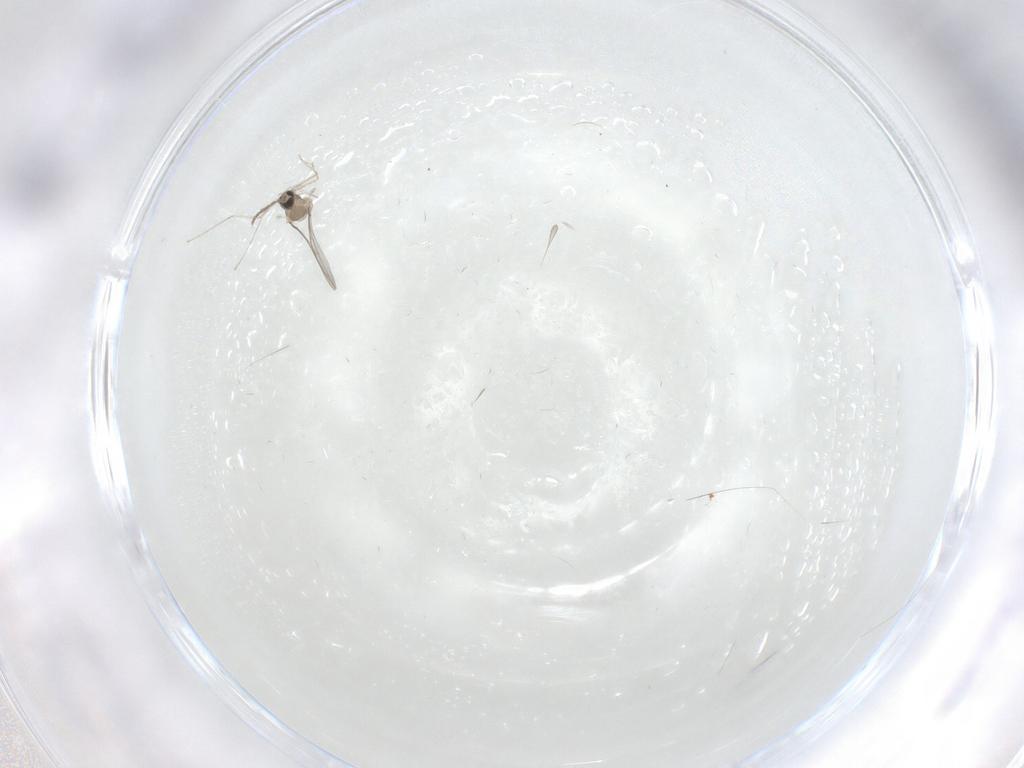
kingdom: Animalia
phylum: Arthropoda
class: Insecta
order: Diptera
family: Cecidomyiidae
